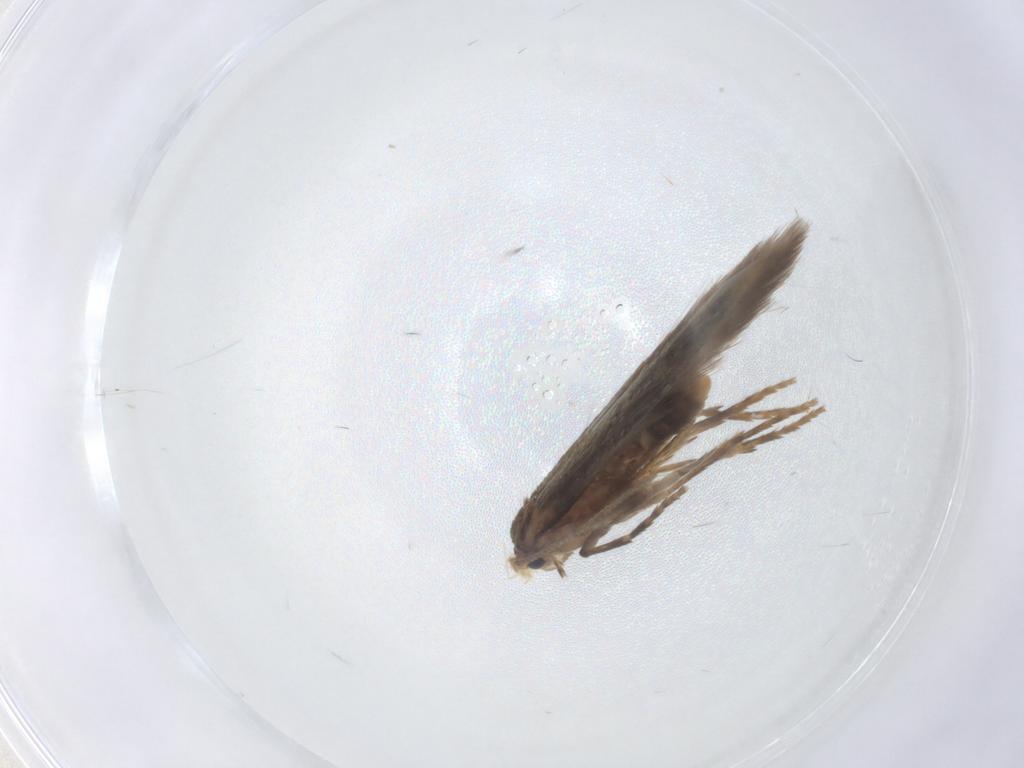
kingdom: Animalia
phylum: Arthropoda
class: Insecta
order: Lepidoptera
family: Nepticulidae
